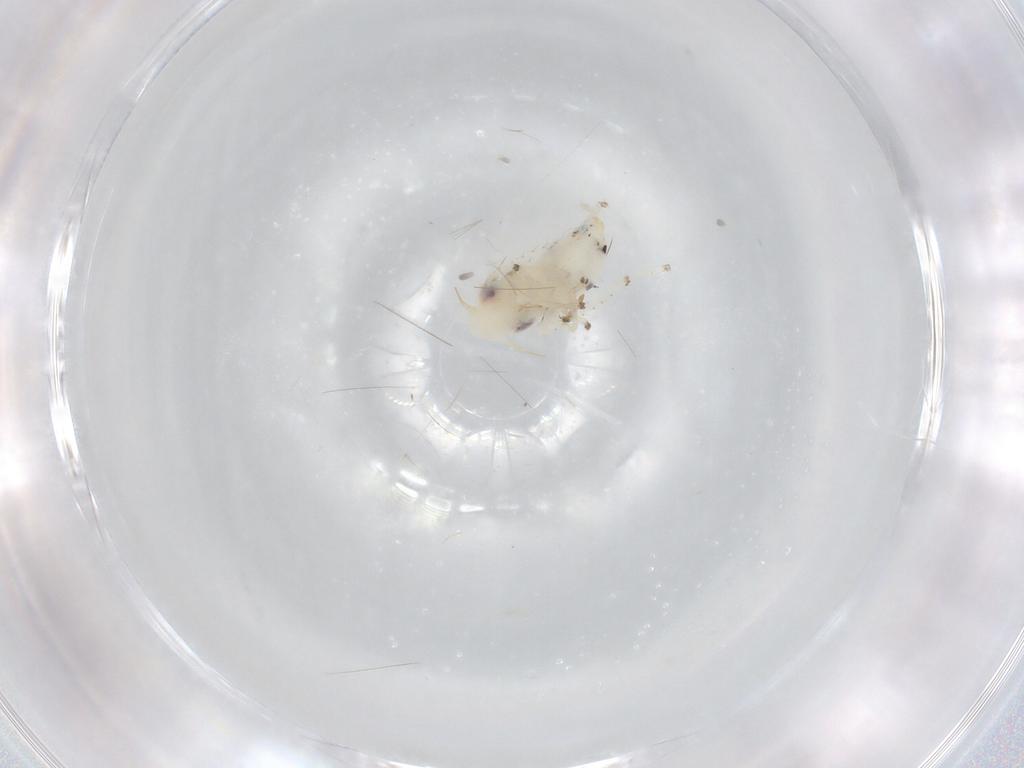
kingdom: Animalia
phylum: Arthropoda
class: Insecta
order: Hemiptera
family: Cicadellidae
